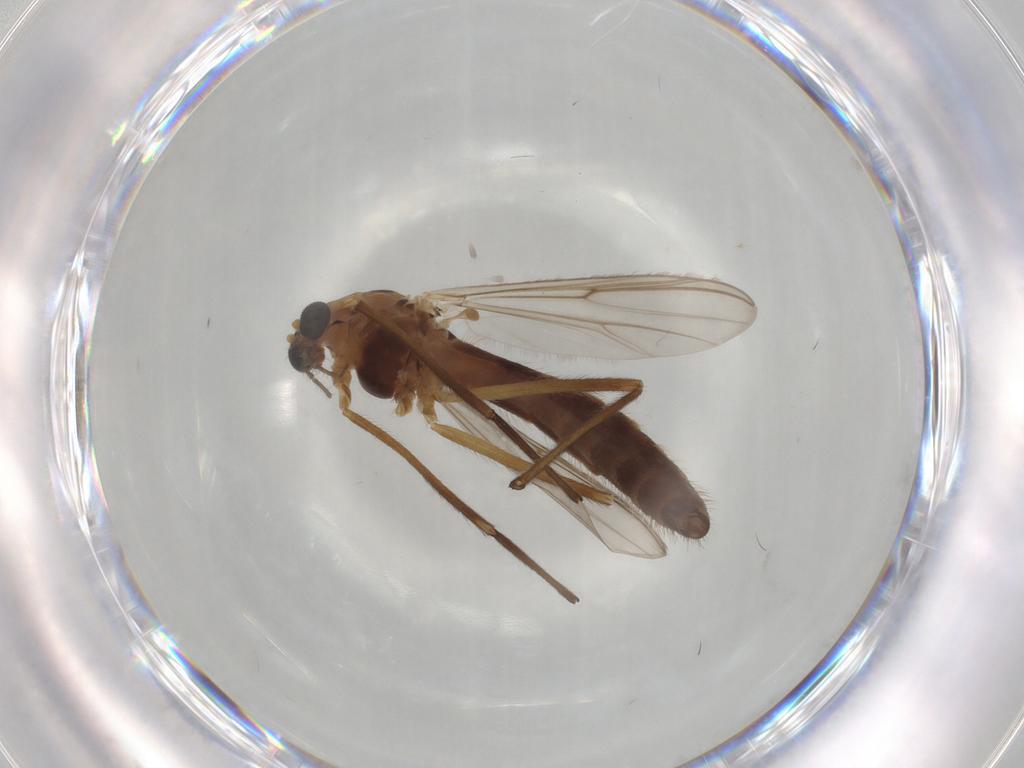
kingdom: Animalia
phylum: Arthropoda
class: Insecta
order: Diptera
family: Chironomidae
